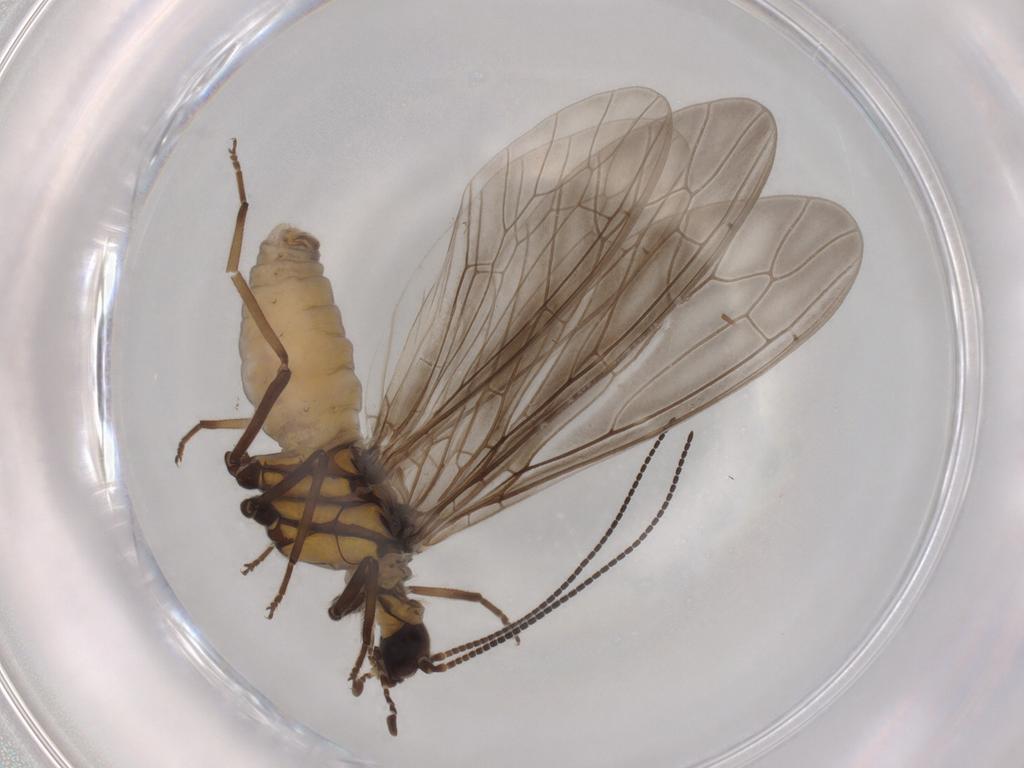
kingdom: Animalia
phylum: Arthropoda
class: Insecta
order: Neuroptera
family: Coniopterygidae
